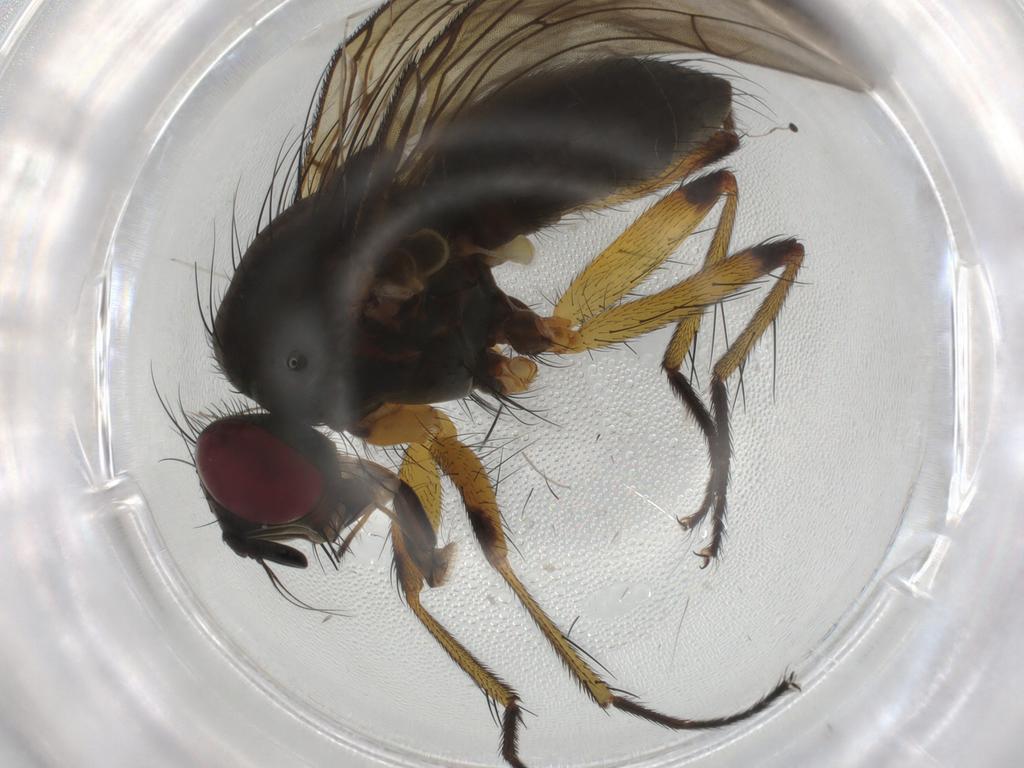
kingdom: Animalia
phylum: Arthropoda
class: Insecta
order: Diptera
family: Muscidae
